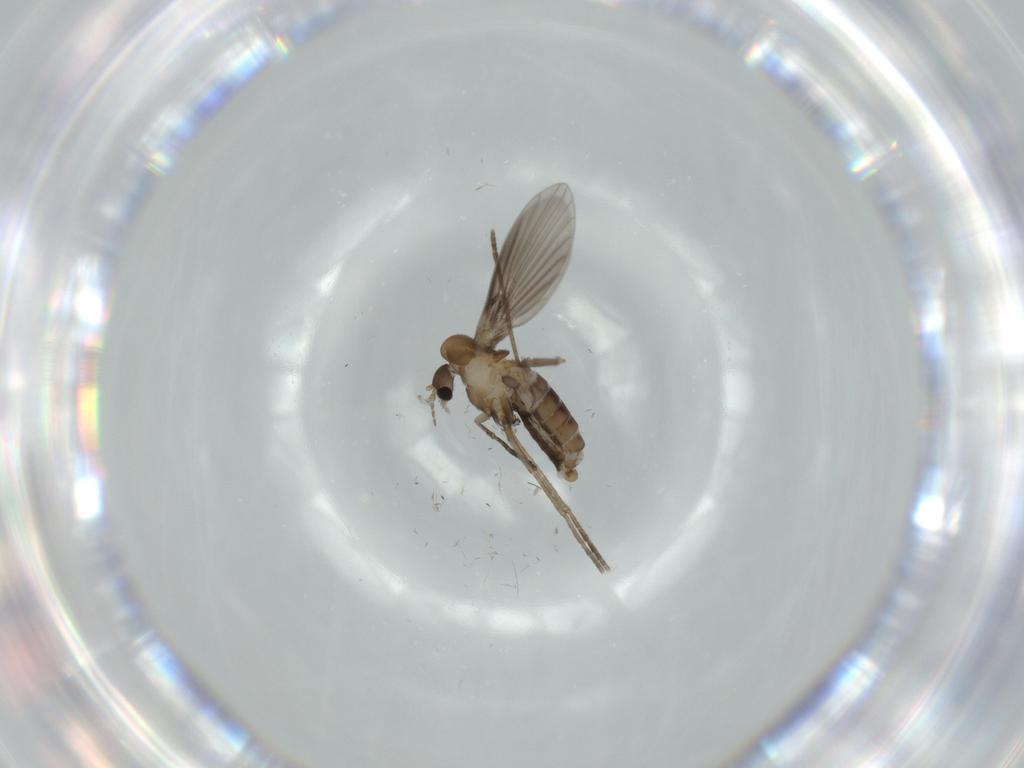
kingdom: Animalia
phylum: Arthropoda
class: Insecta
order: Diptera
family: Psychodidae
